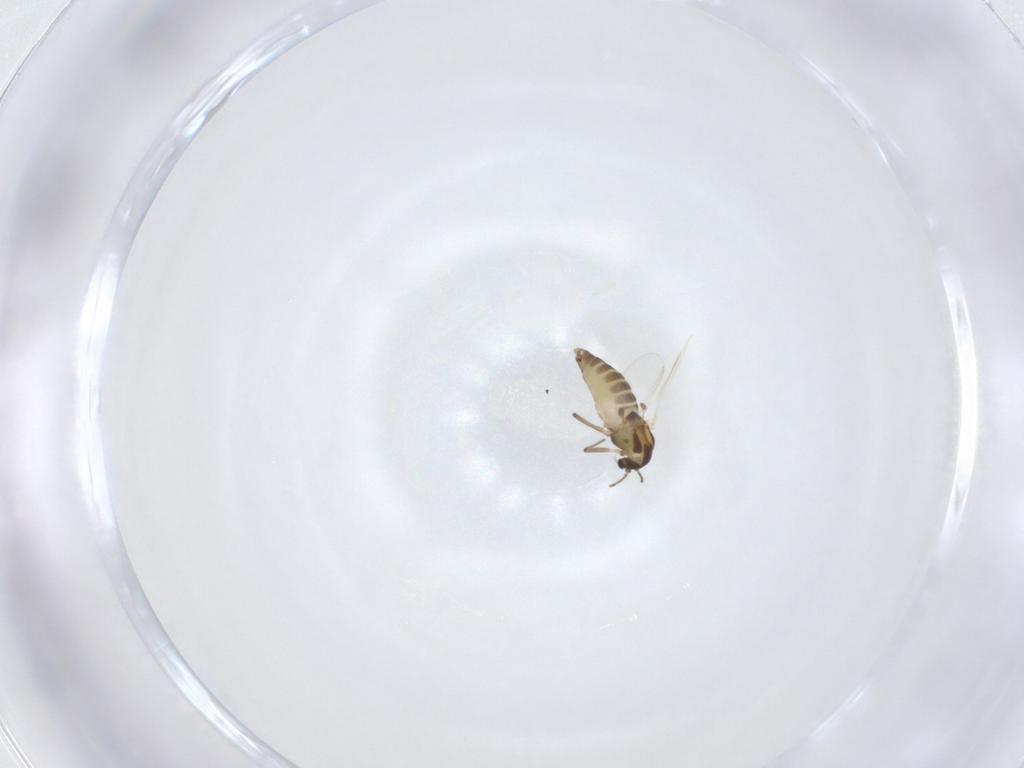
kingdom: Animalia
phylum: Arthropoda
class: Insecta
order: Diptera
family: Chironomidae
